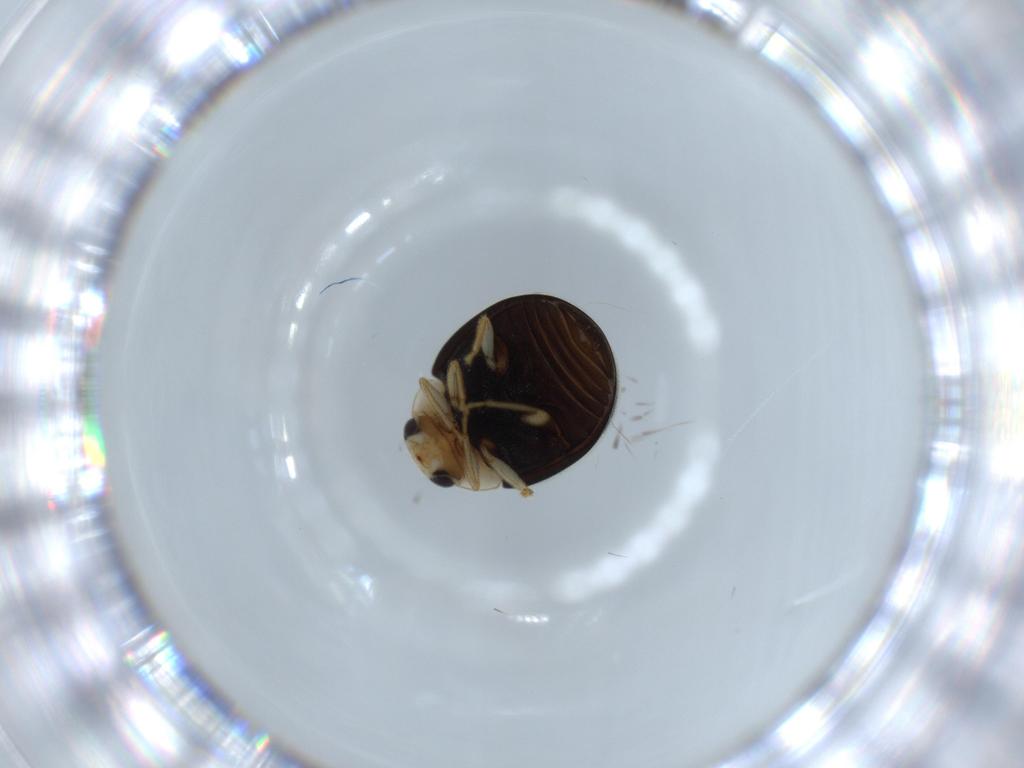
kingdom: Animalia
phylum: Arthropoda
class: Insecta
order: Coleoptera
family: Coccinellidae
